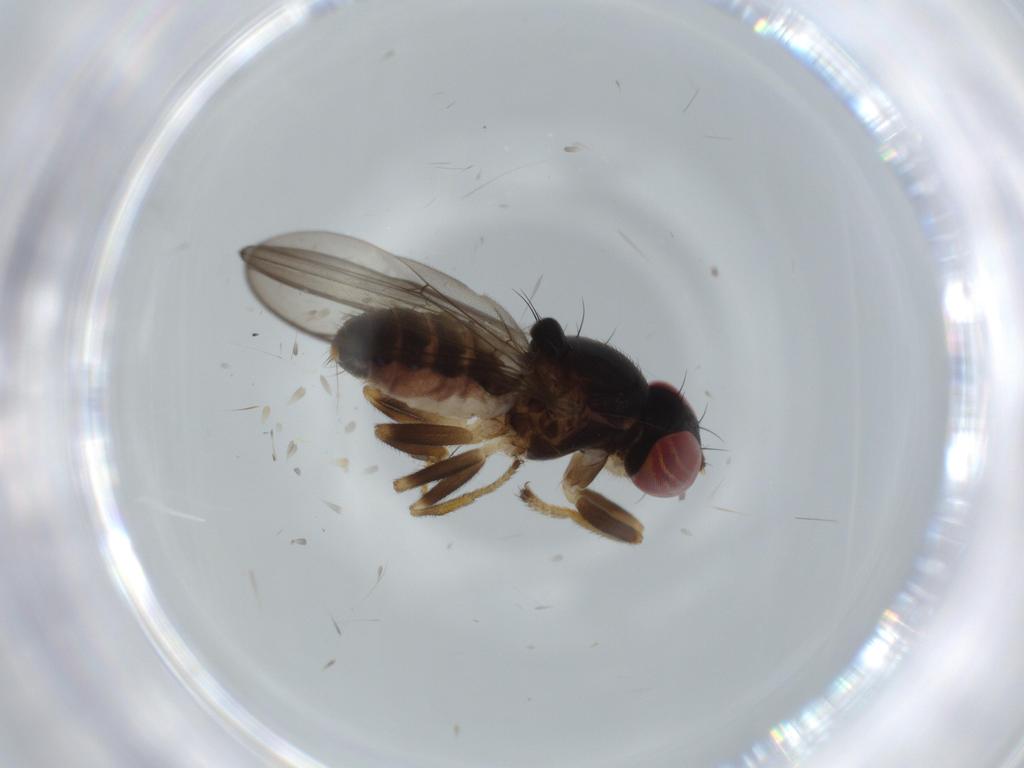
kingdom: Animalia
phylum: Arthropoda
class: Insecta
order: Diptera
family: Aulacigastridae
